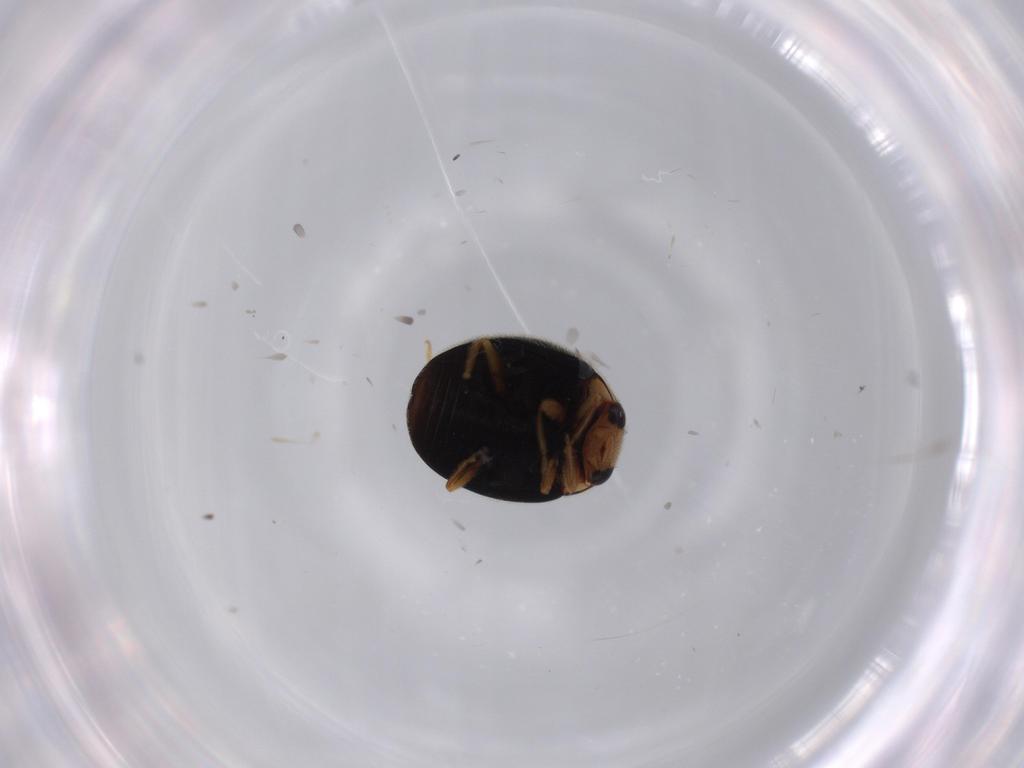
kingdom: Animalia
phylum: Arthropoda
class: Insecta
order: Coleoptera
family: Coccinellidae
